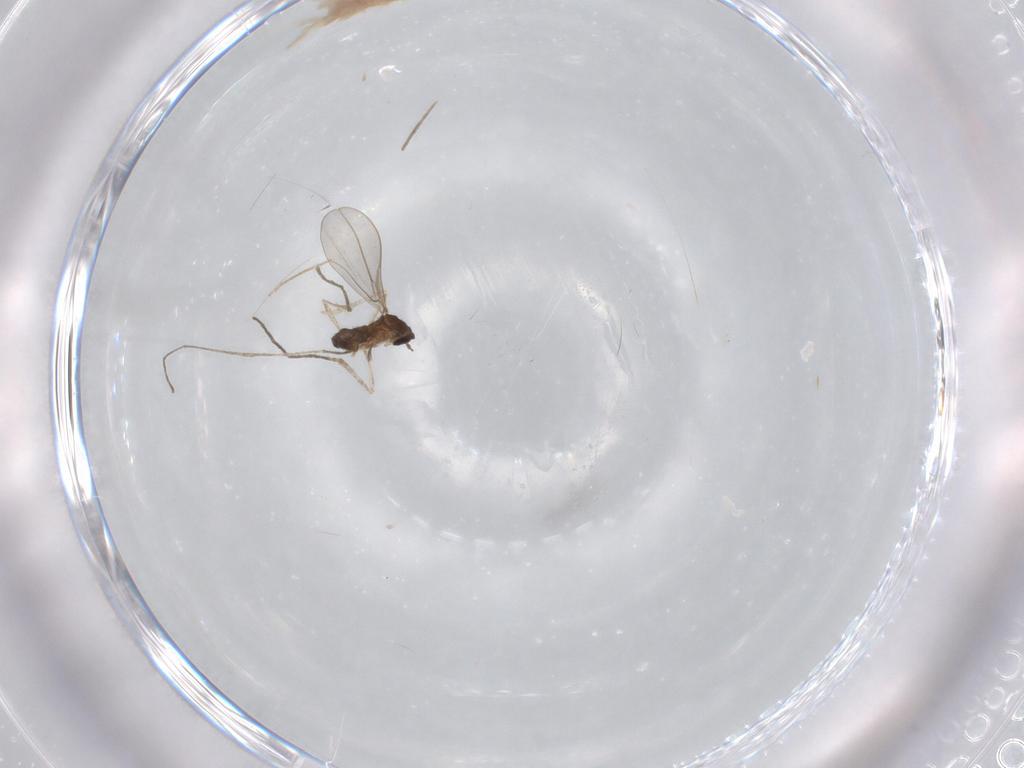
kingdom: Animalia
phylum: Arthropoda
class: Insecta
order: Diptera
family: Cecidomyiidae
